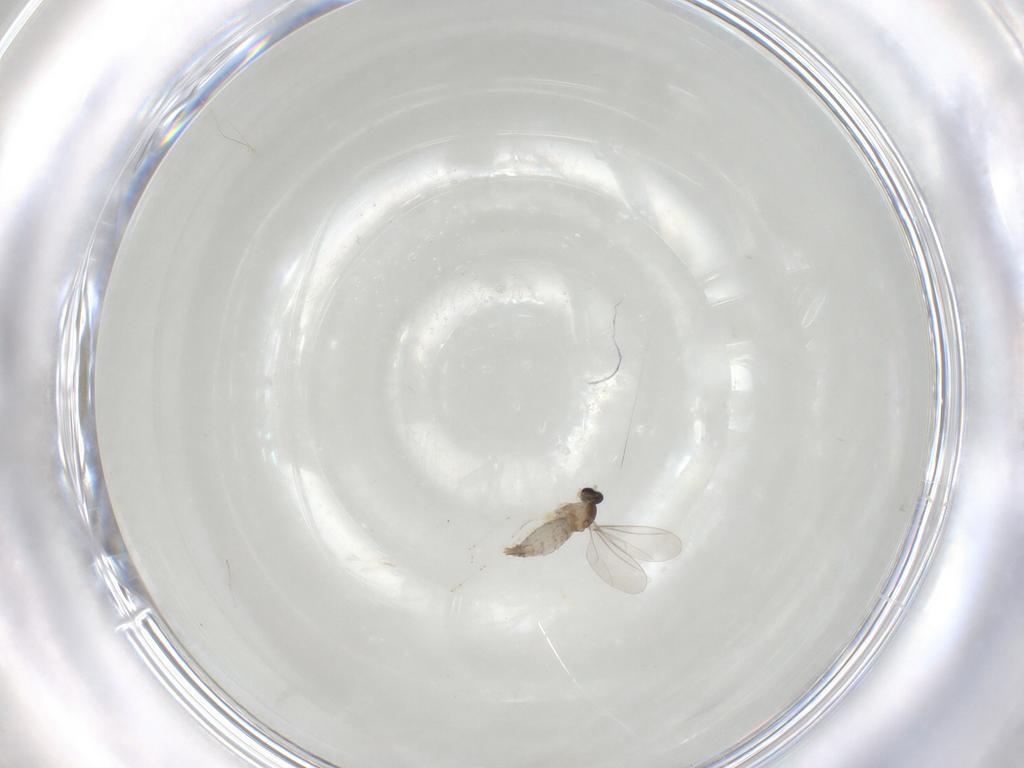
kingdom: Animalia
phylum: Arthropoda
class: Insecta
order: Diptera
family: Cecidomyiidae
